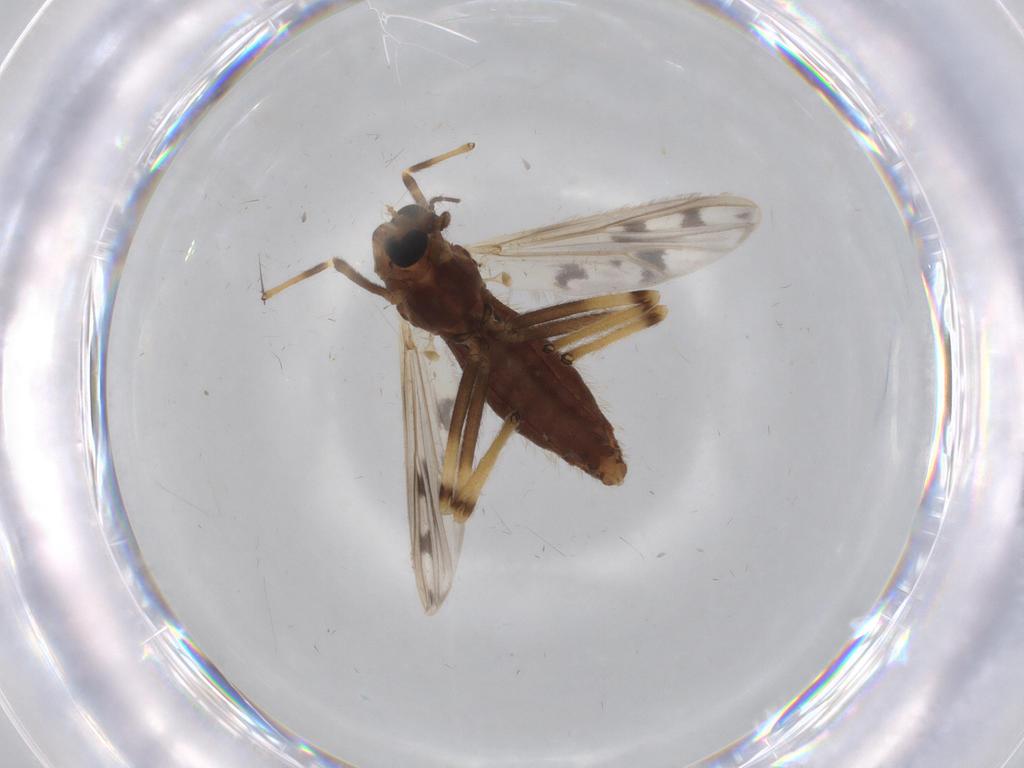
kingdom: Animalia
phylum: Arthropoda
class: Insecta
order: Diptera
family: Chironomidae
